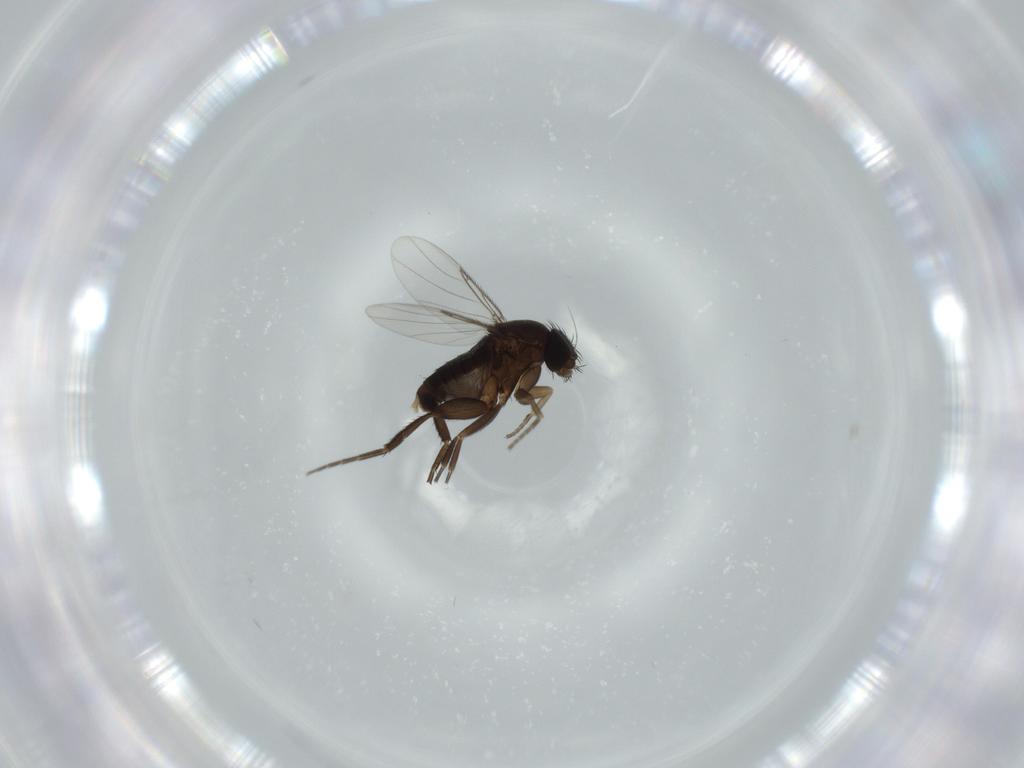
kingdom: Animalia
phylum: Arthropoda
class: Insecta
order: Diptera
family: Phoridae
